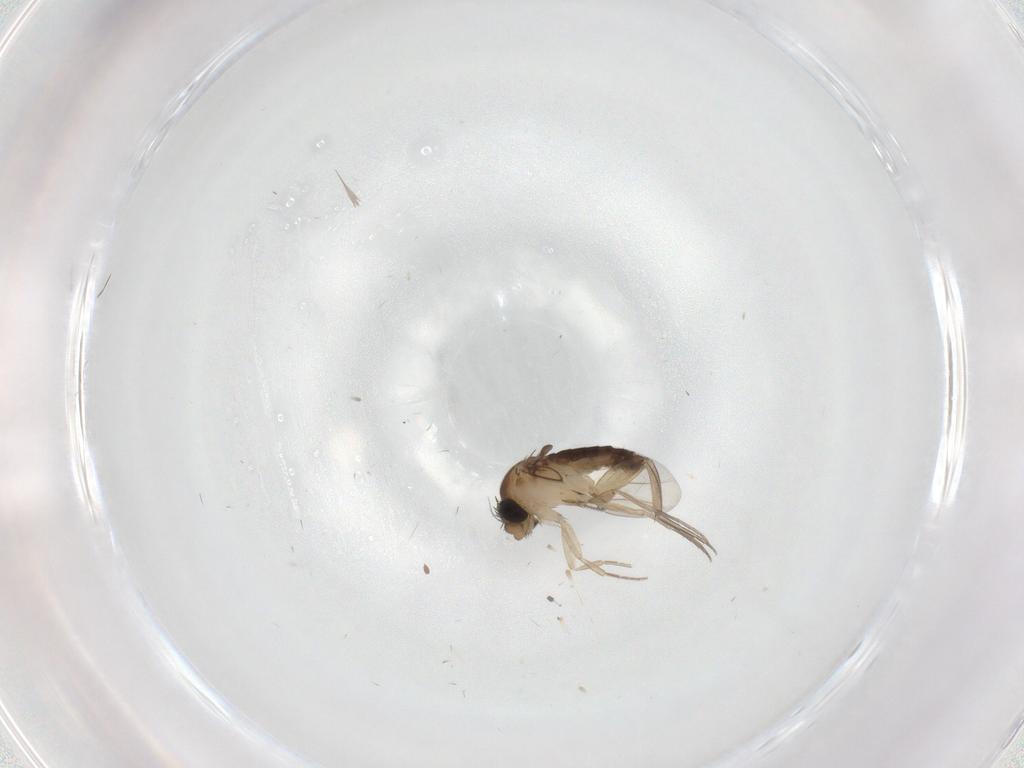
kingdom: Animalia
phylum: Arthropoda
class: Insecta
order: Diptera
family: Phoridae
